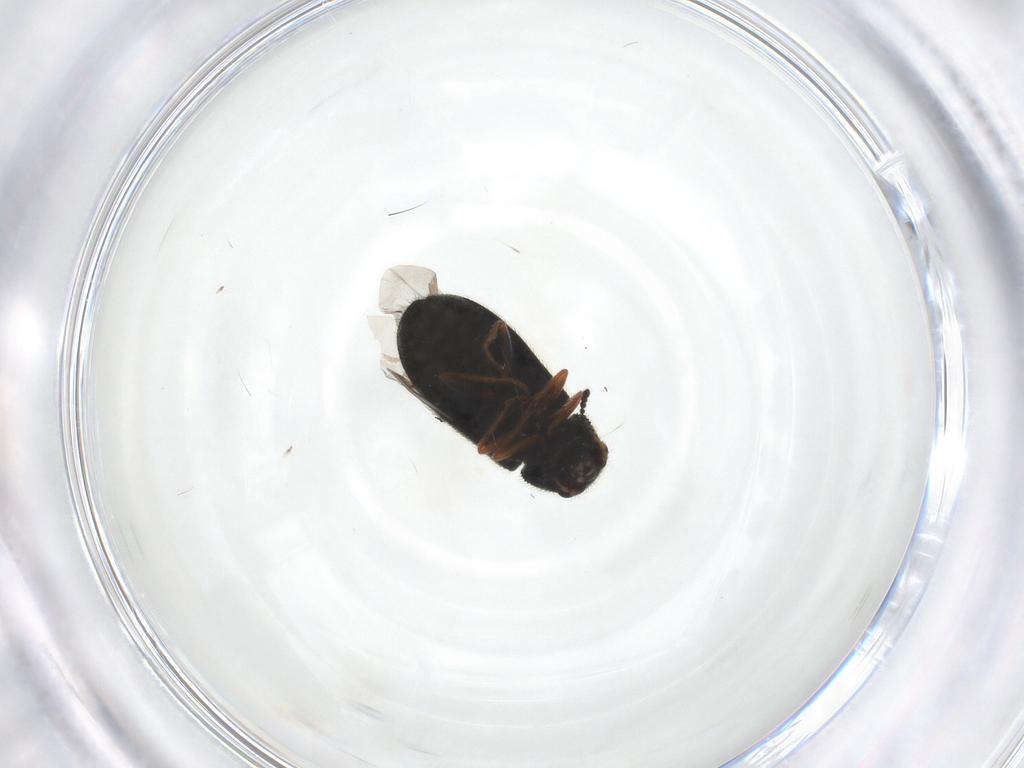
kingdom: Animalia
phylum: Arthropoda
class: Insecta
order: Coleoptera
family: Melyridae
